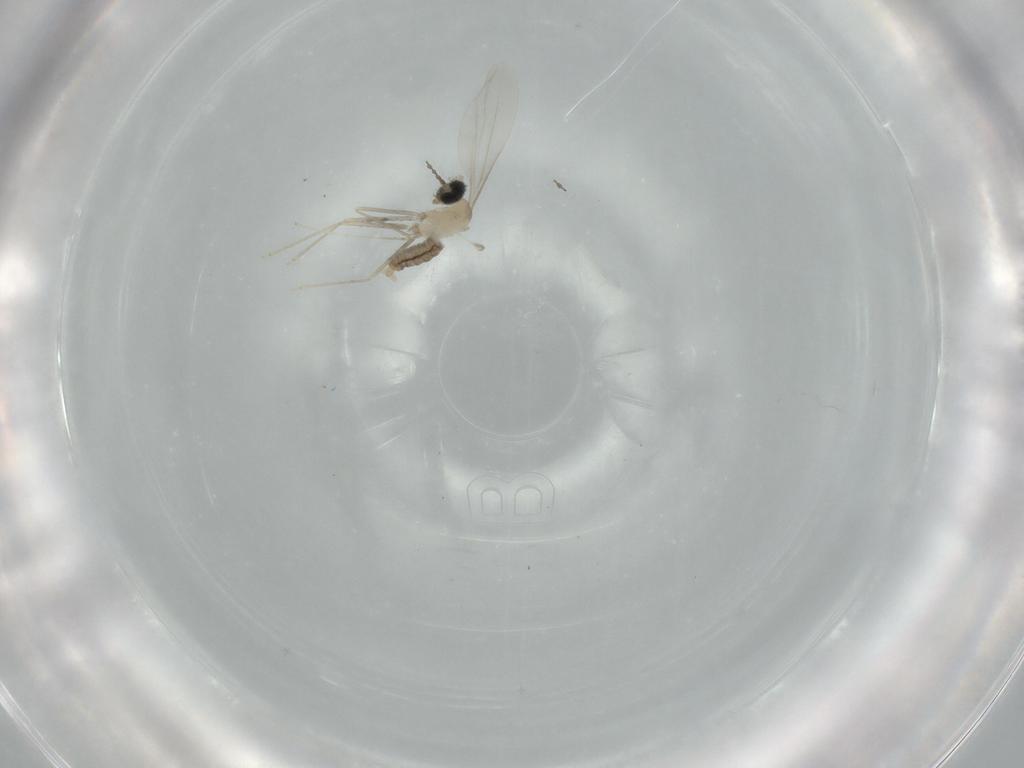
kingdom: Animalia
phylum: Arthropoda
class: Insecta
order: Diptera
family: Cecidomyiidae
